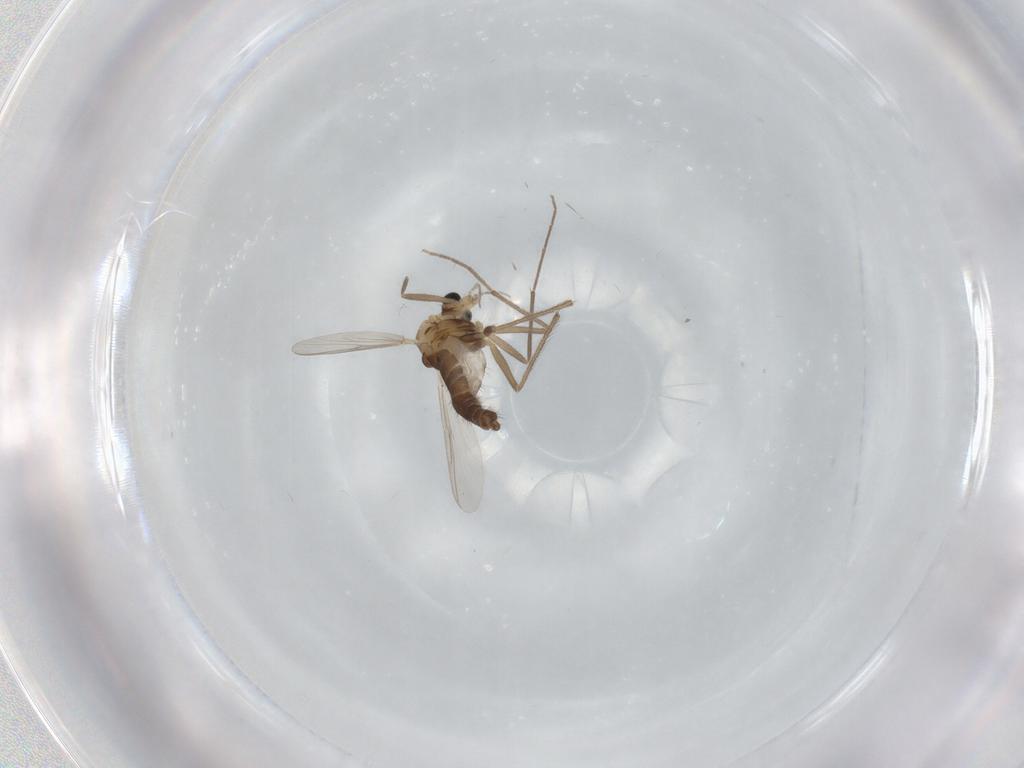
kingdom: Animalia
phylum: Arthropoda
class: Insecta
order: Diptera
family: Chironomidae
